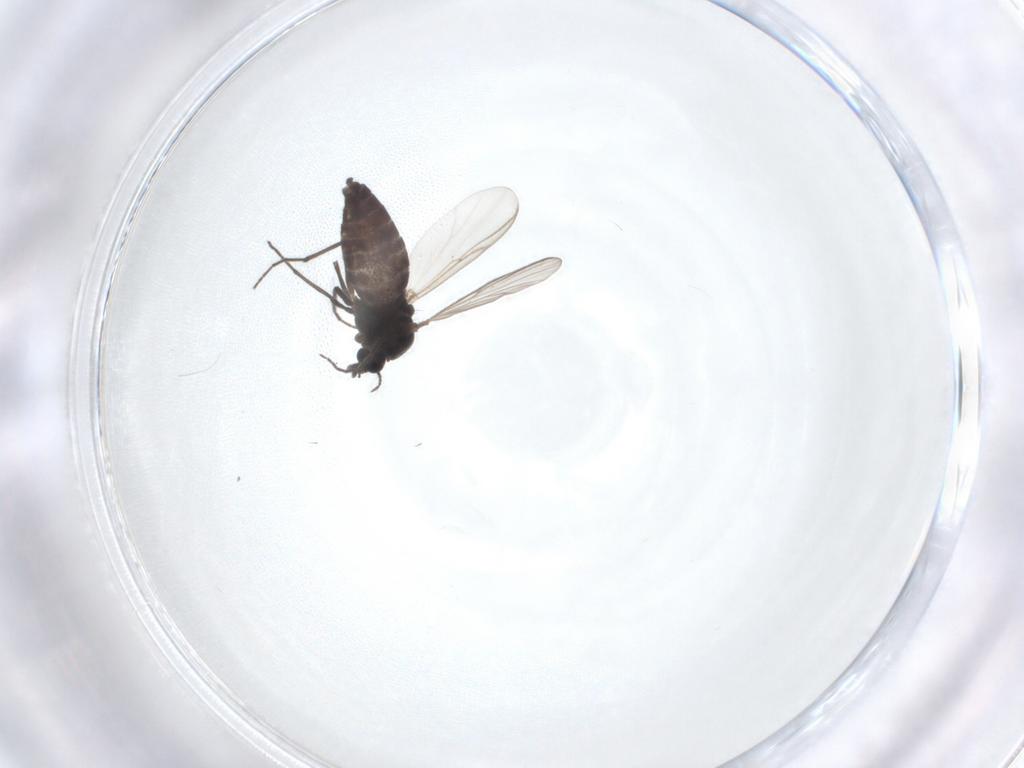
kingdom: Animalia
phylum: Arthropoda
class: Insecta
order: Diptera
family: Chironomidae
